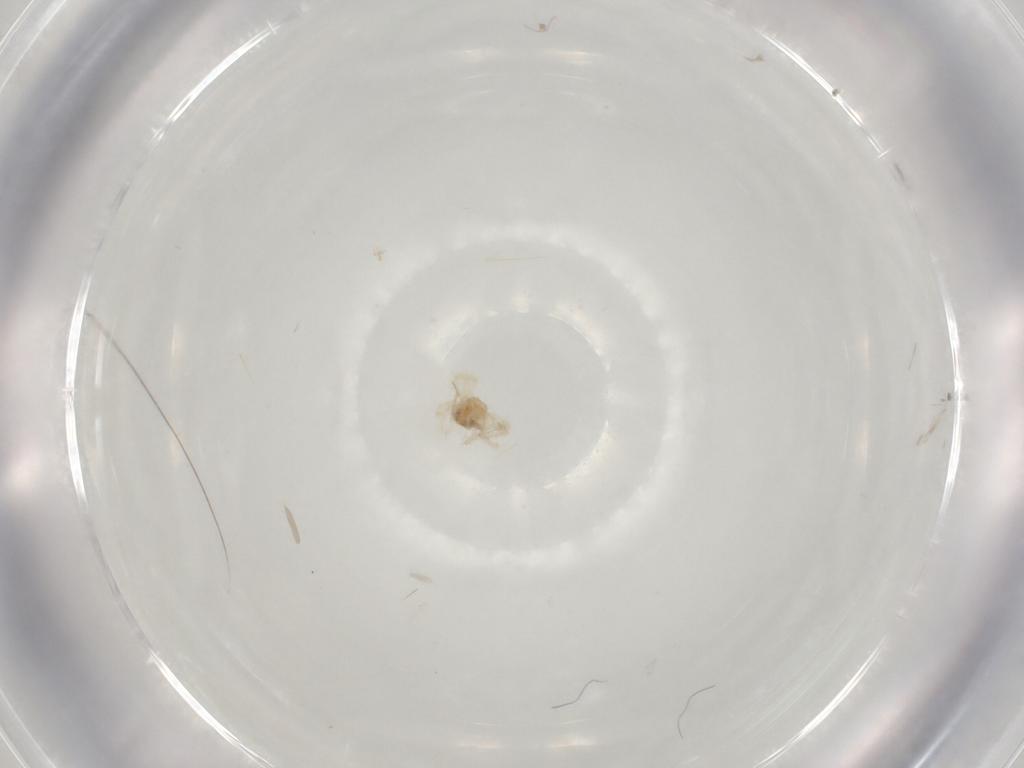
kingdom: Animalia
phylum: Arthropoda
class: Arachnida
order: Trombidiformes
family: Anystidae
